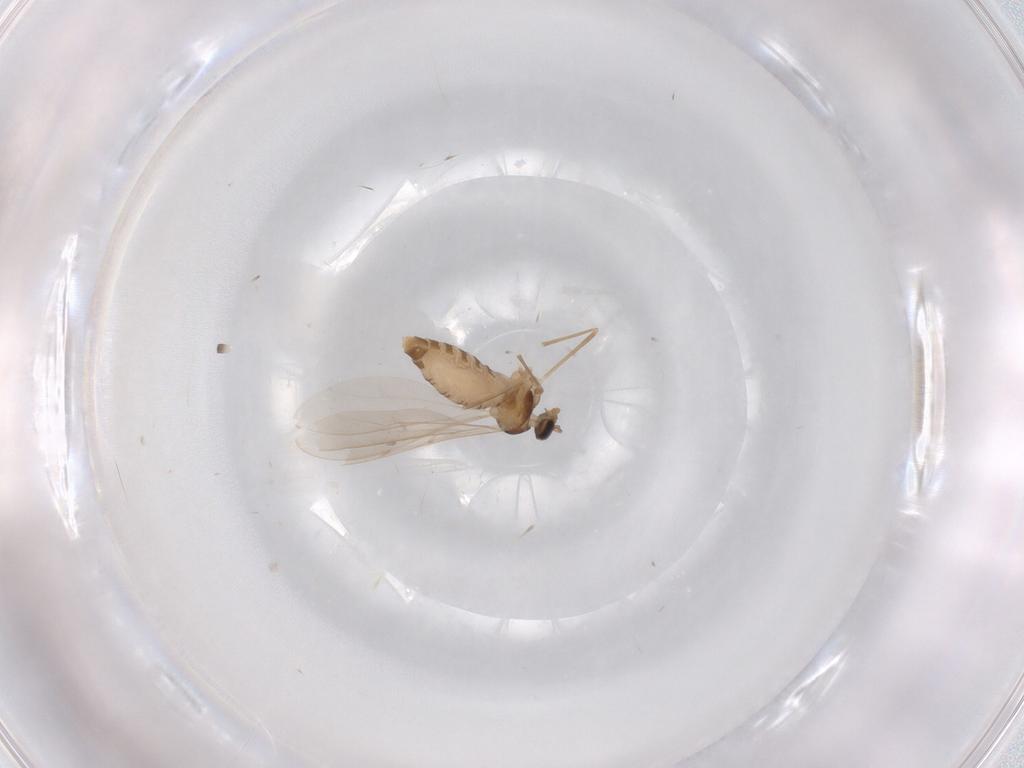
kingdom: Animalia
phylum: Arthropoda
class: Insecta
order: Diptera
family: Cecidomyiidae
